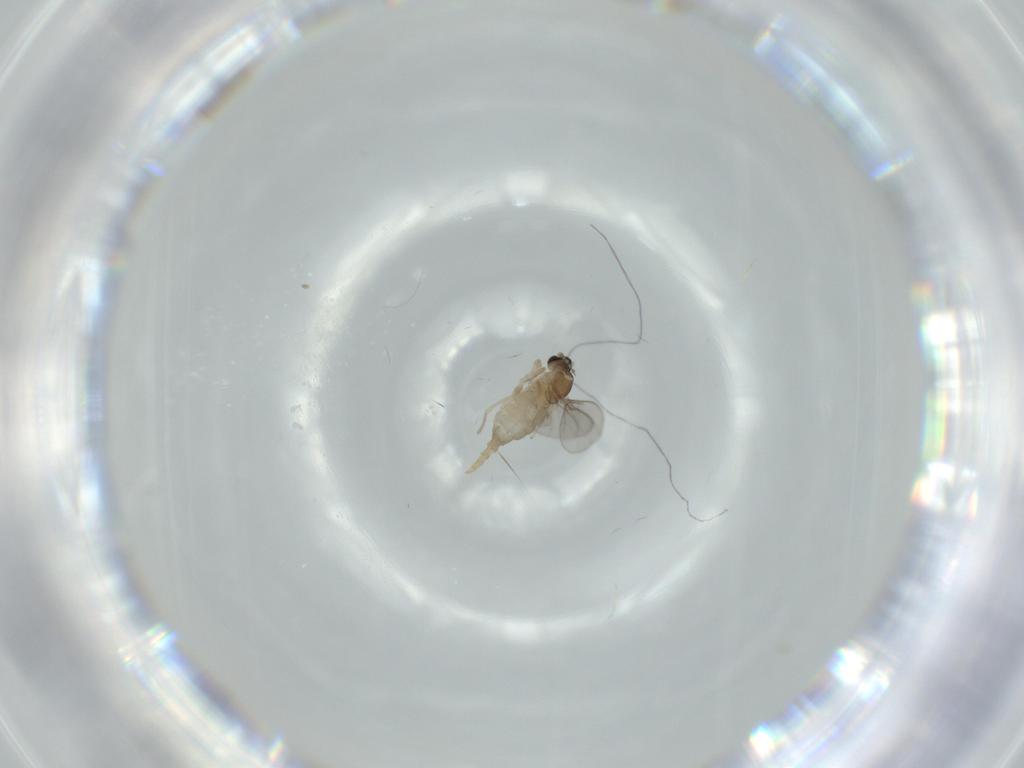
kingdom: Animalia
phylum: Arthropoda
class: Insecta
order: Diptera
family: Cecidomyiidae
